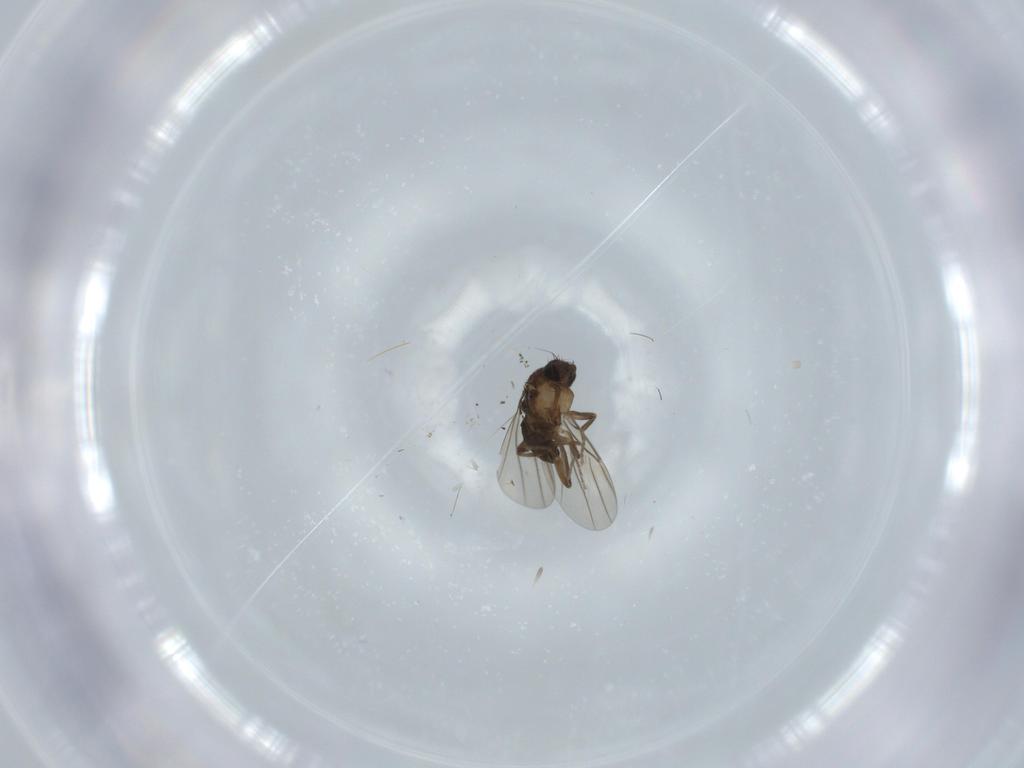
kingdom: Animalia
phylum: Arthropoda
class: Insecta
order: Diptera
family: Phoridae
